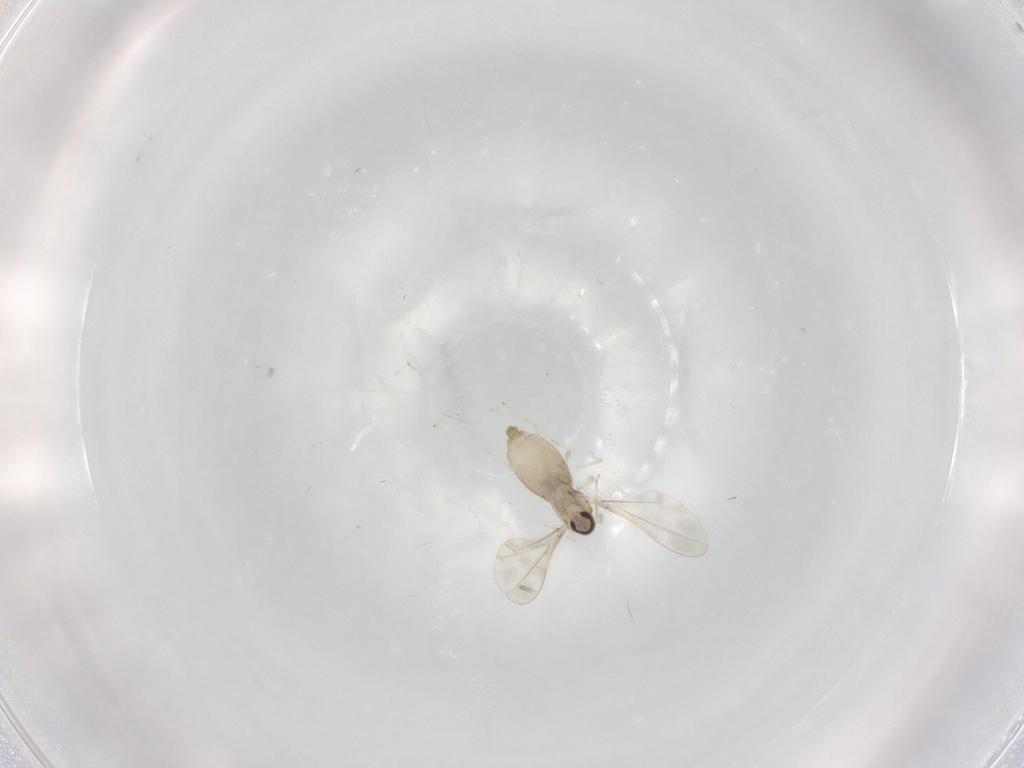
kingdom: Animalia
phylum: Arthropoda
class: Insecta
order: Diptera
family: Cecidomyiidae
